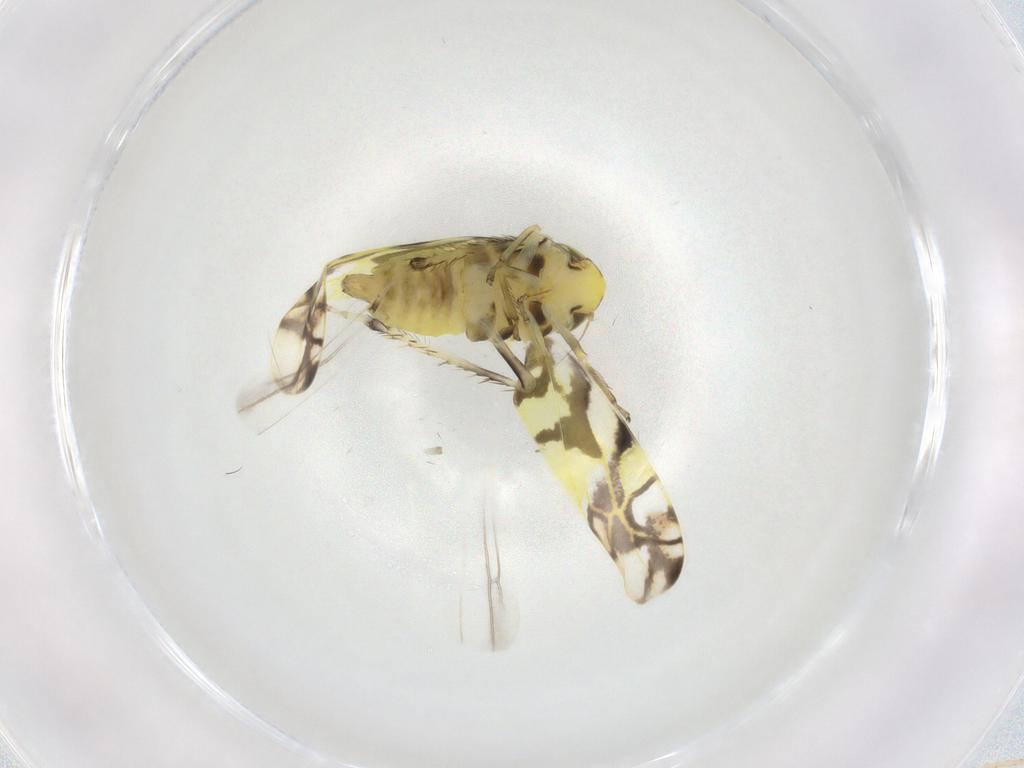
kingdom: Animalia
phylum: Arthropoda
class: Insecta
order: Hemiptera
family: Cicadellidae
